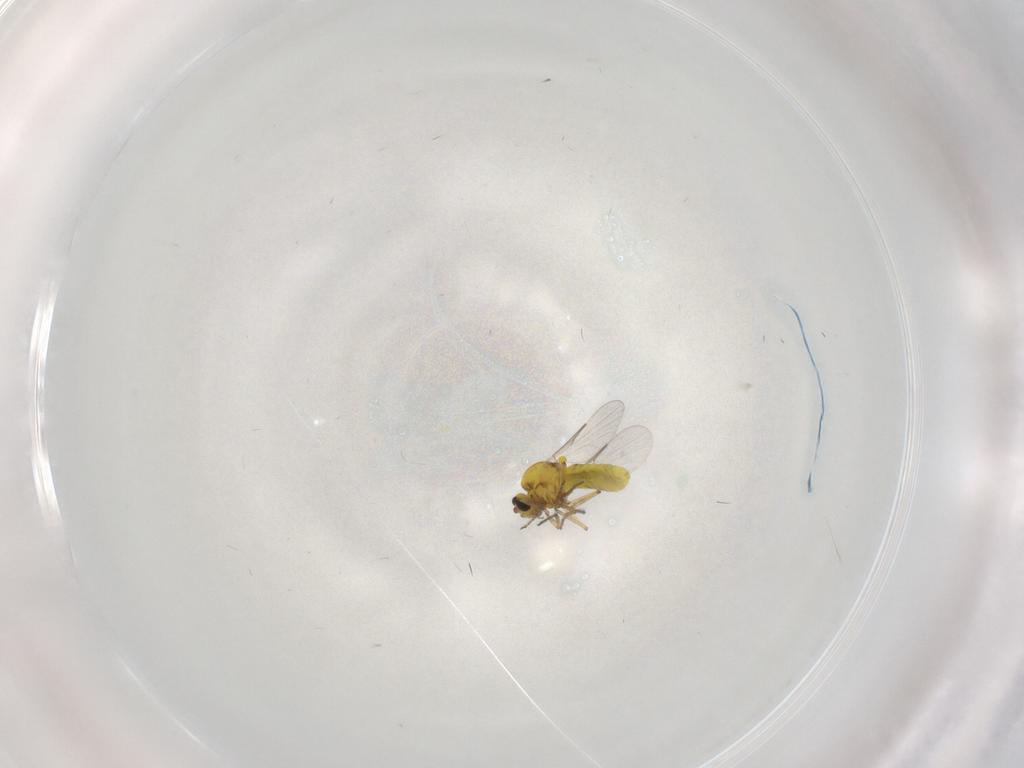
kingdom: Animalia
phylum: Arthropoda
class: Insecta
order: Diptera
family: Ceratopogonidae
